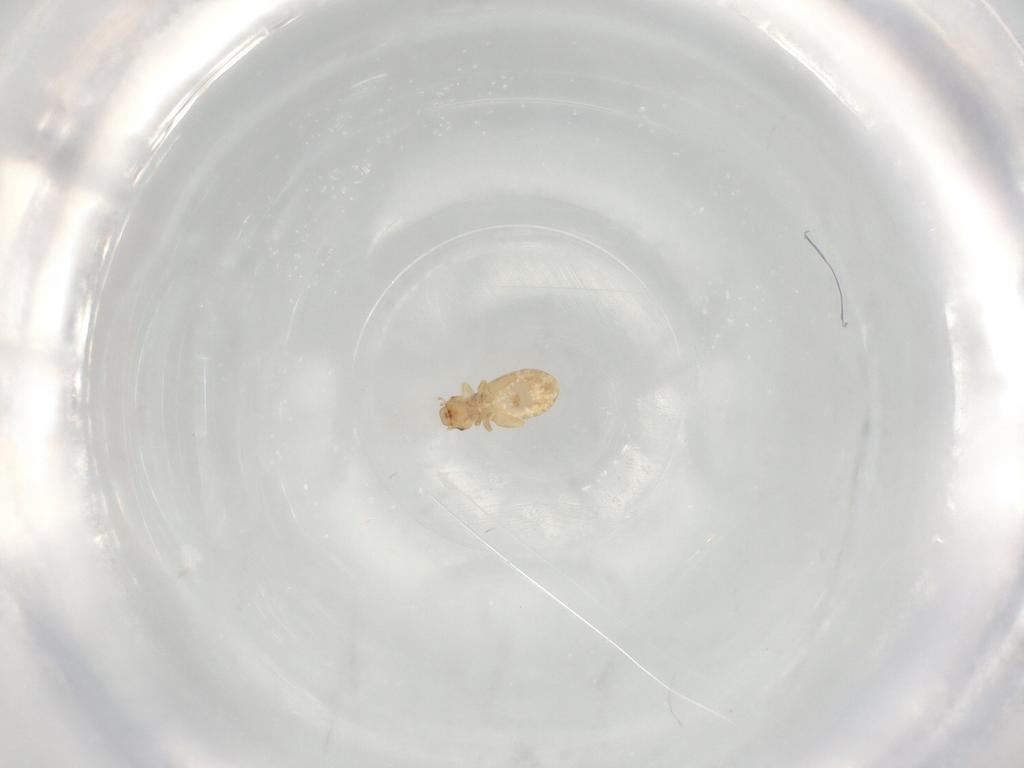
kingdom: Animalia
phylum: Arthropoda
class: Insecta
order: Psocodea
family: Liposcelididae
